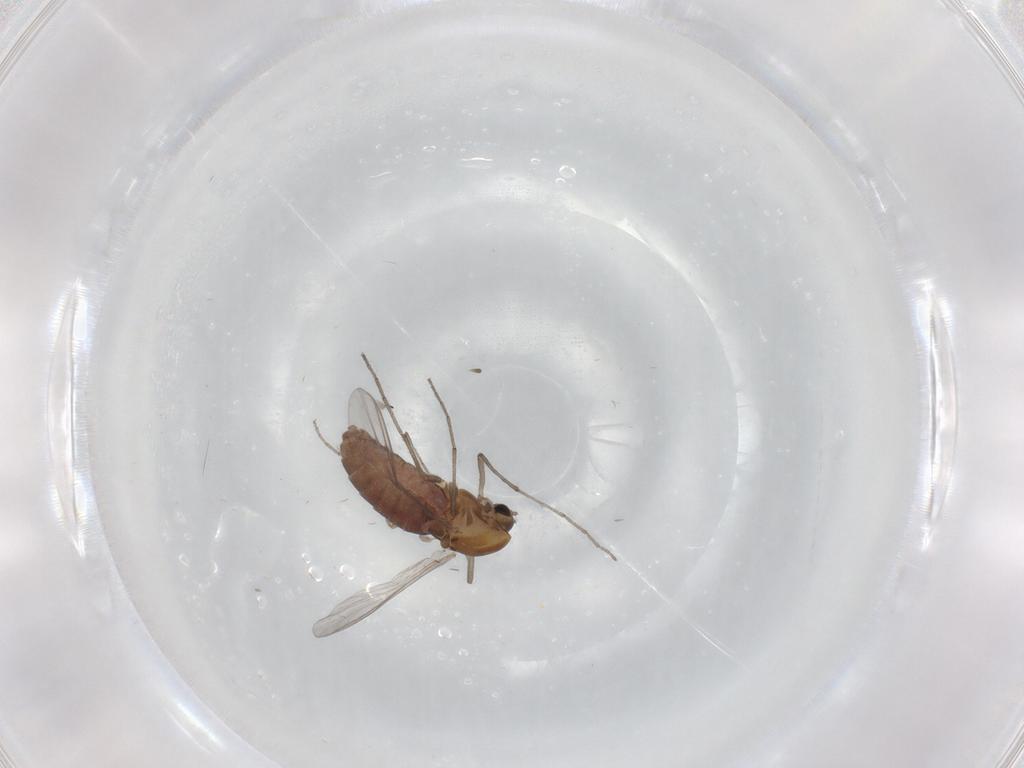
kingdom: Animalia
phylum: Arthropoda
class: Insecta
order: Diptera
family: Chironomidae
